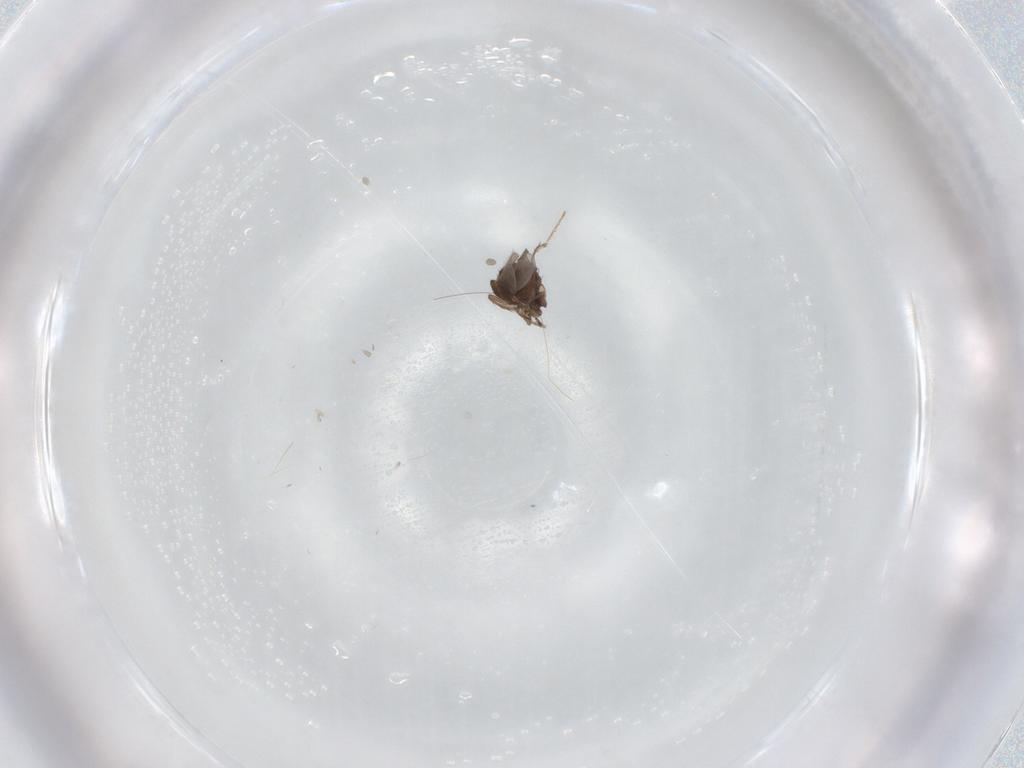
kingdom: Animalia
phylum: Arthropoda
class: Insecta
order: Diptera
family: Sphaeroceridae
